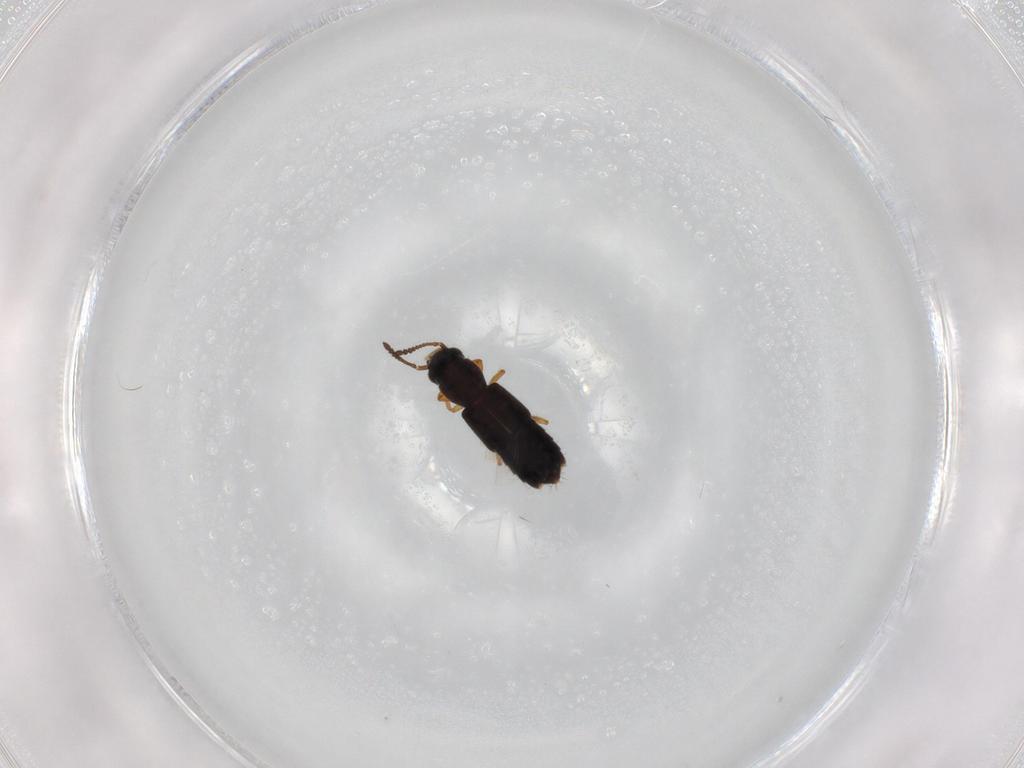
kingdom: Animalia
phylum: Arthropoda
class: Insecta
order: Coleoptera
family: Staphylinidae
